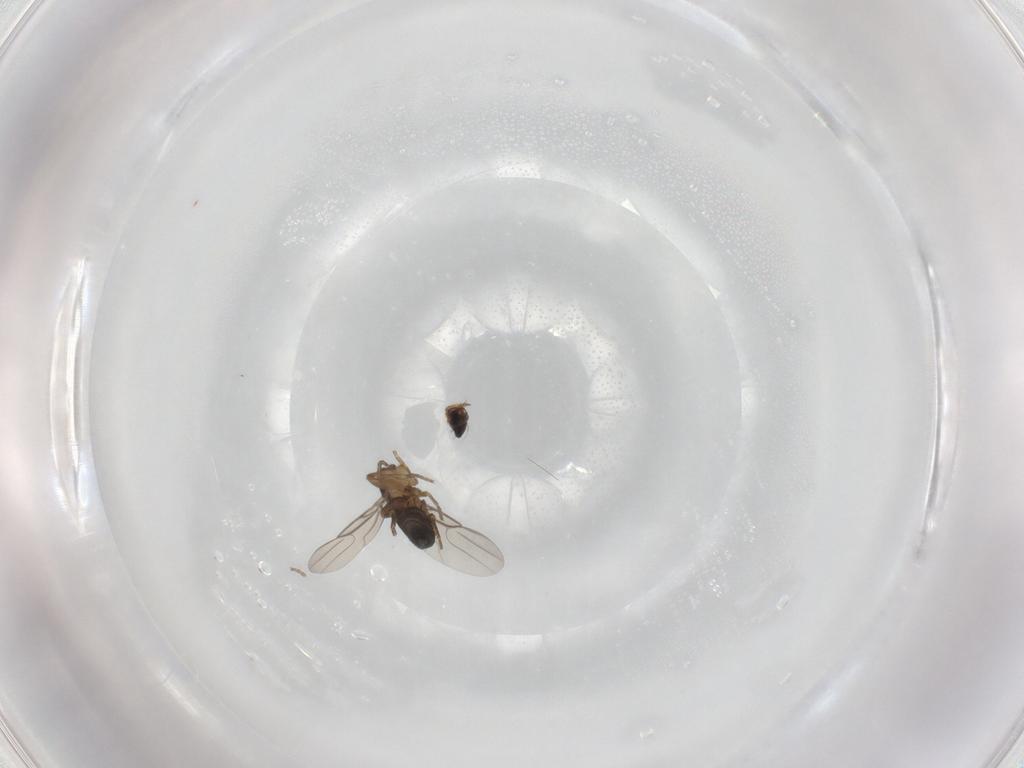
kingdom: Animalia
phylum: Arthropoda
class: Insecta
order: Diptera
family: Phoridae
